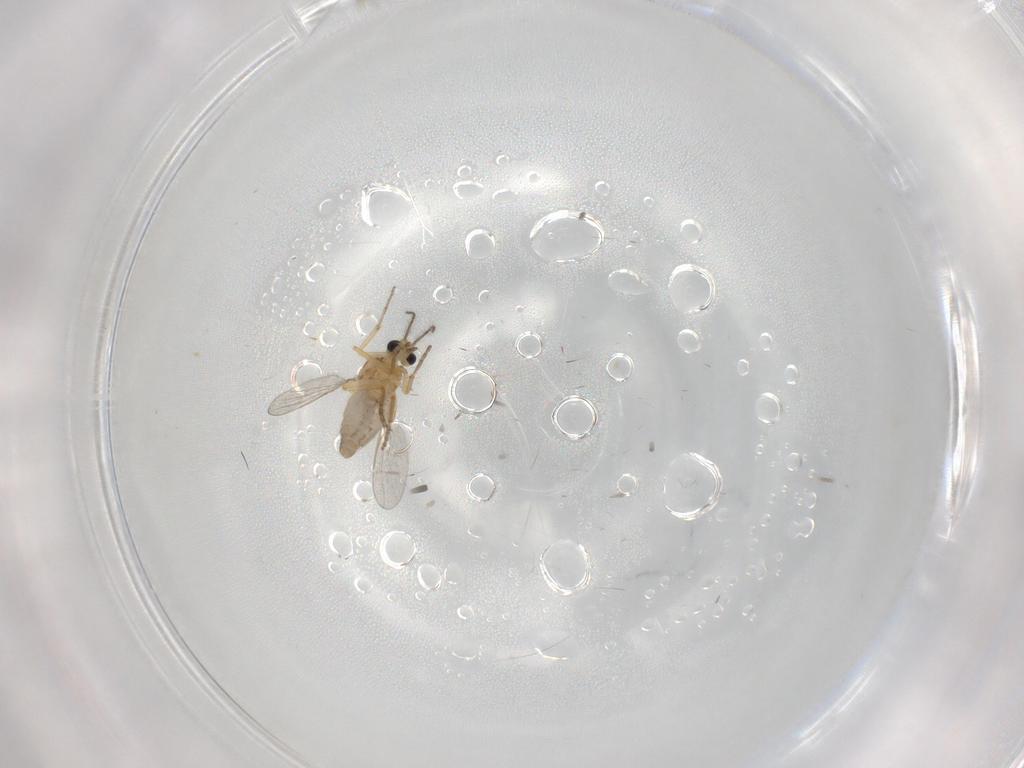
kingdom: Animalia
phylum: Arthropoda
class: Insecta
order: Diptera
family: Ceratopogonidae
